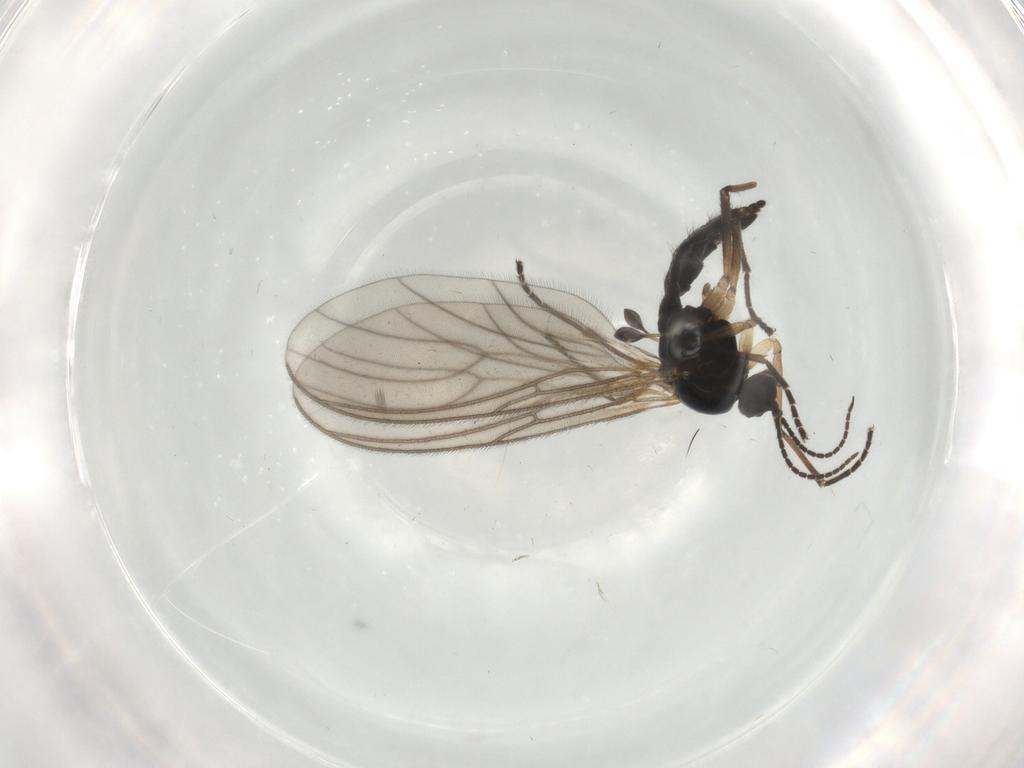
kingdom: Animalia
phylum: Arthropoda
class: Insecta
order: Diptera
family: Sciaridae
